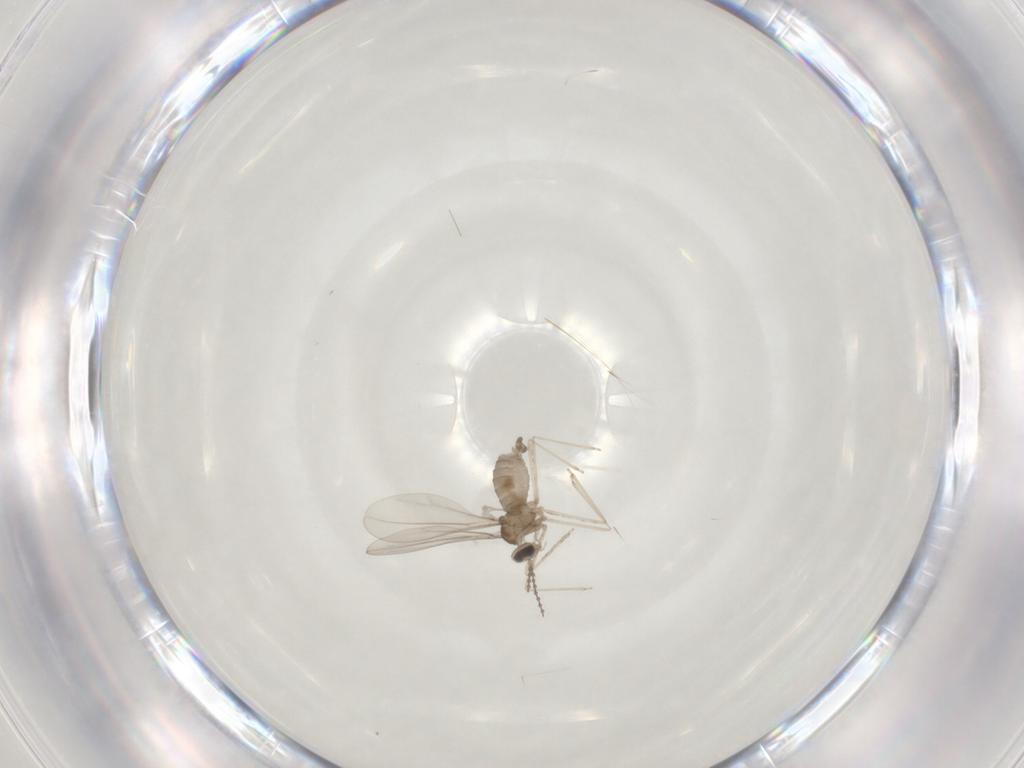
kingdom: Animalia
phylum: Arthropoda
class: Insecta
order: Diptera
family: Cecidomyiidae
